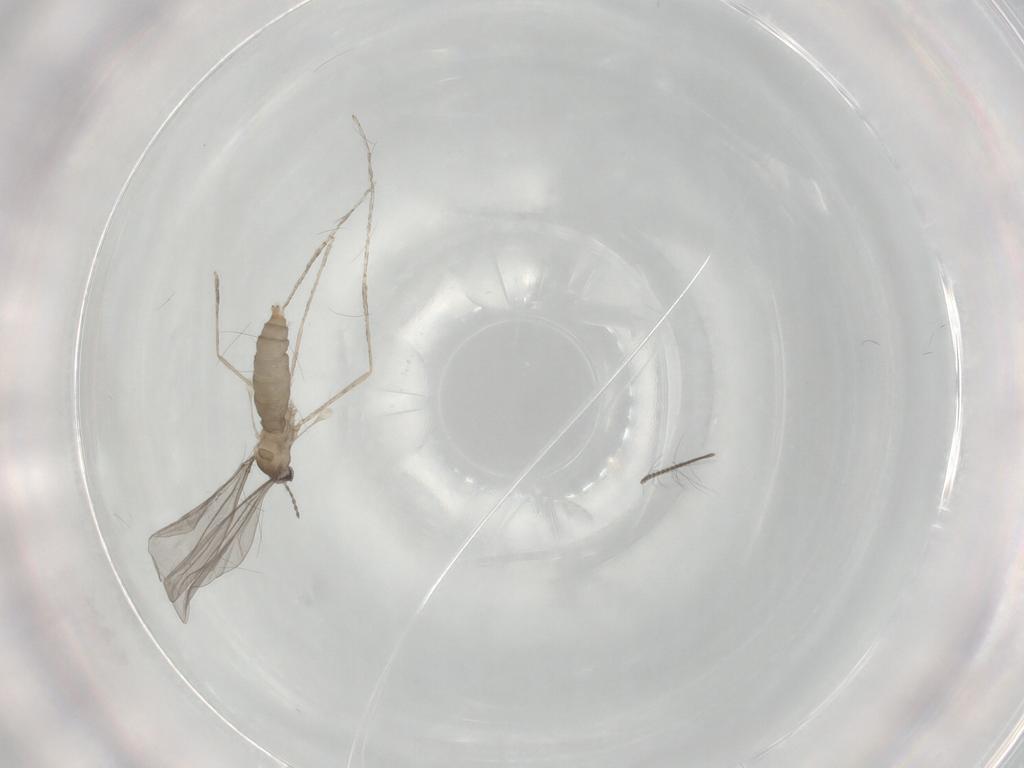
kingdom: Animalia
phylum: Arthropoda
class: Insecta
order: Diptera
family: Cecidomyiidae
